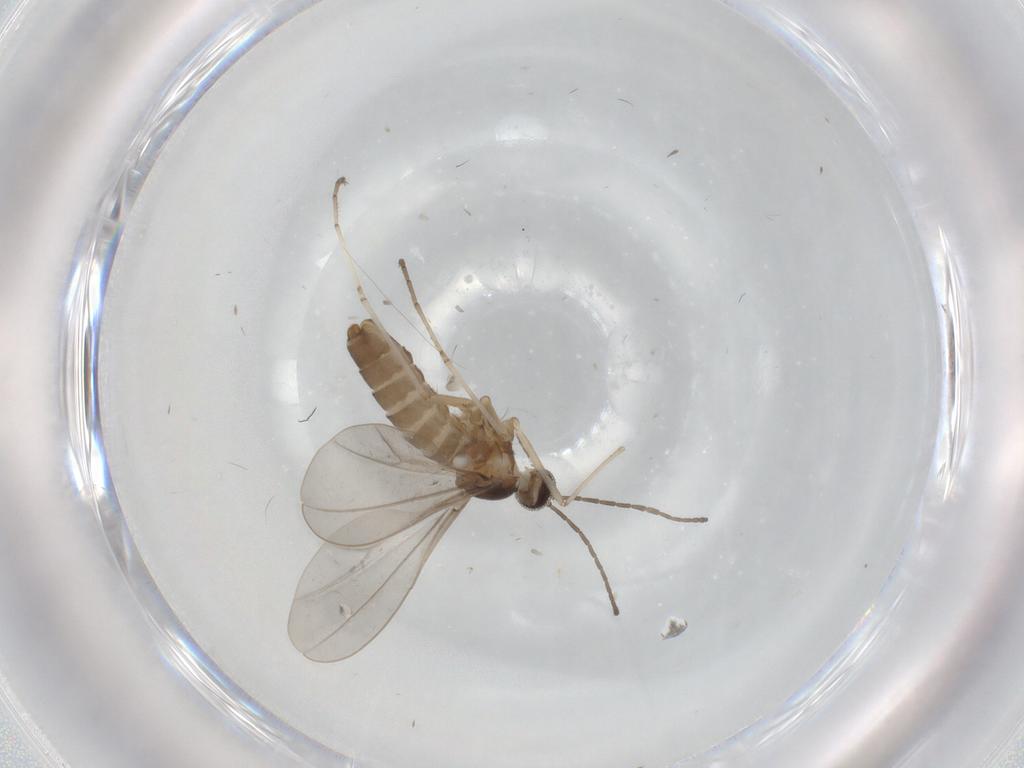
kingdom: Animalia
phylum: Arthropoda
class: Insecta
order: Diptera
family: Cecidomyiidae
